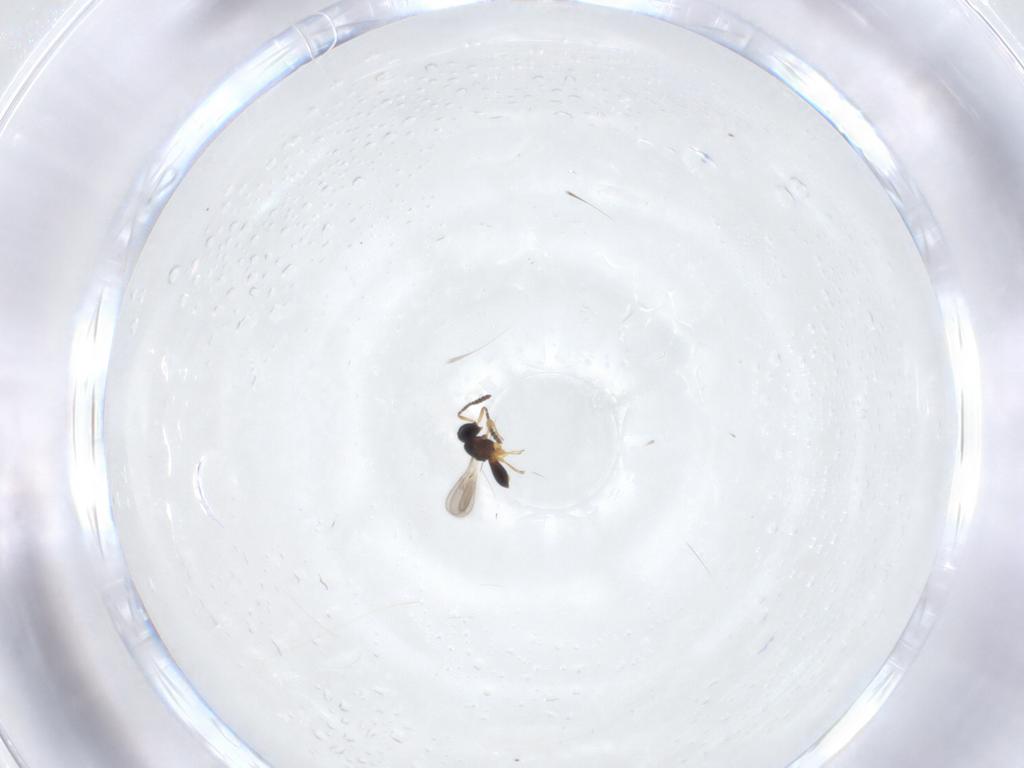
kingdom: Animalia
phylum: Arthropoda
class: Insecta
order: Hymenoptera
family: Scelionidae
